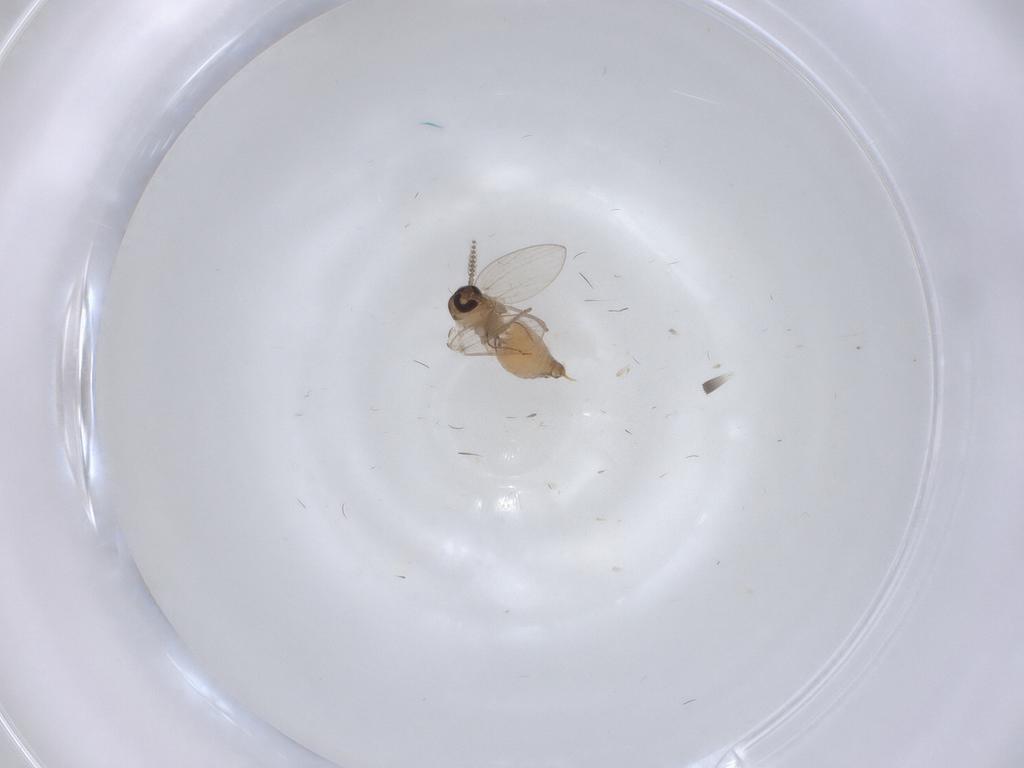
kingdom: Animalia
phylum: Arthropoda
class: Insecta
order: Diptera
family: Psychodidae
